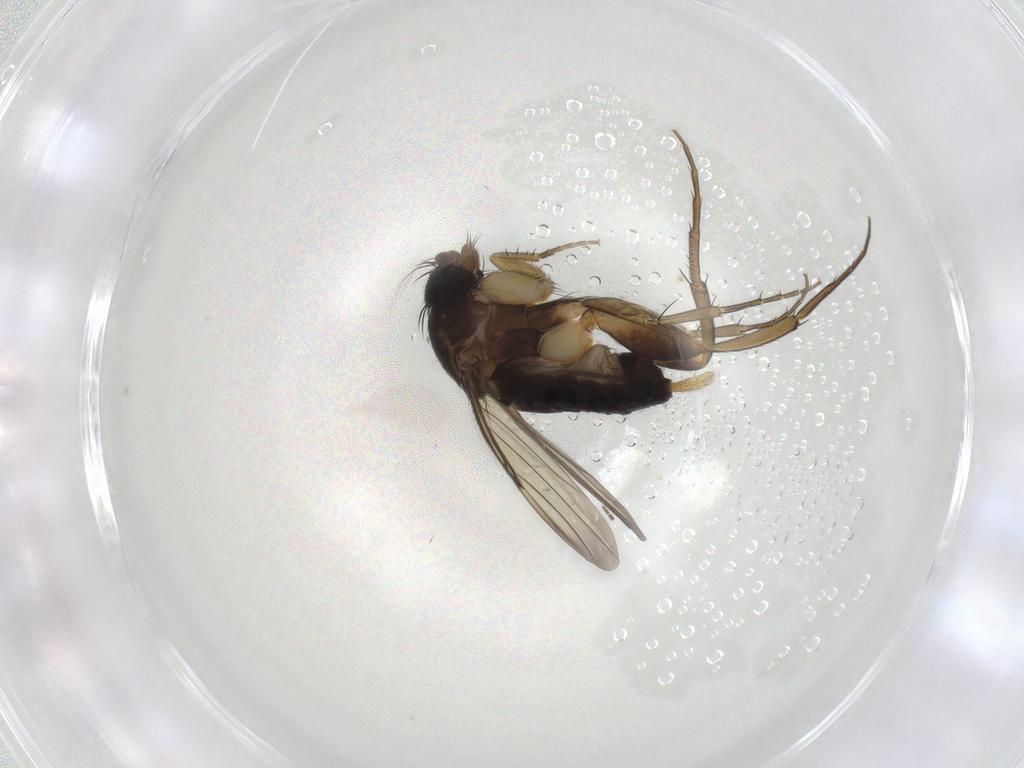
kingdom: Animalia
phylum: Arthropoda
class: Insecta
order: Diptera
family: Phoridae
